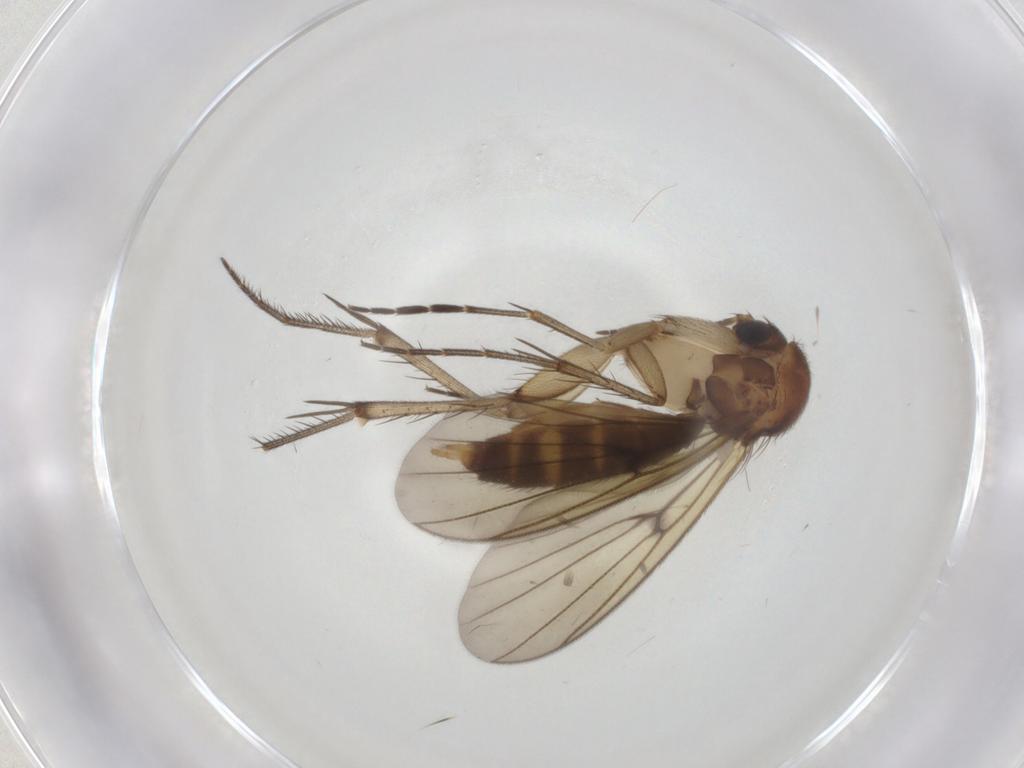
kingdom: Animalia
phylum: Arthropoda
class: Insecta
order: Diptera
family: Mycetophilidae
